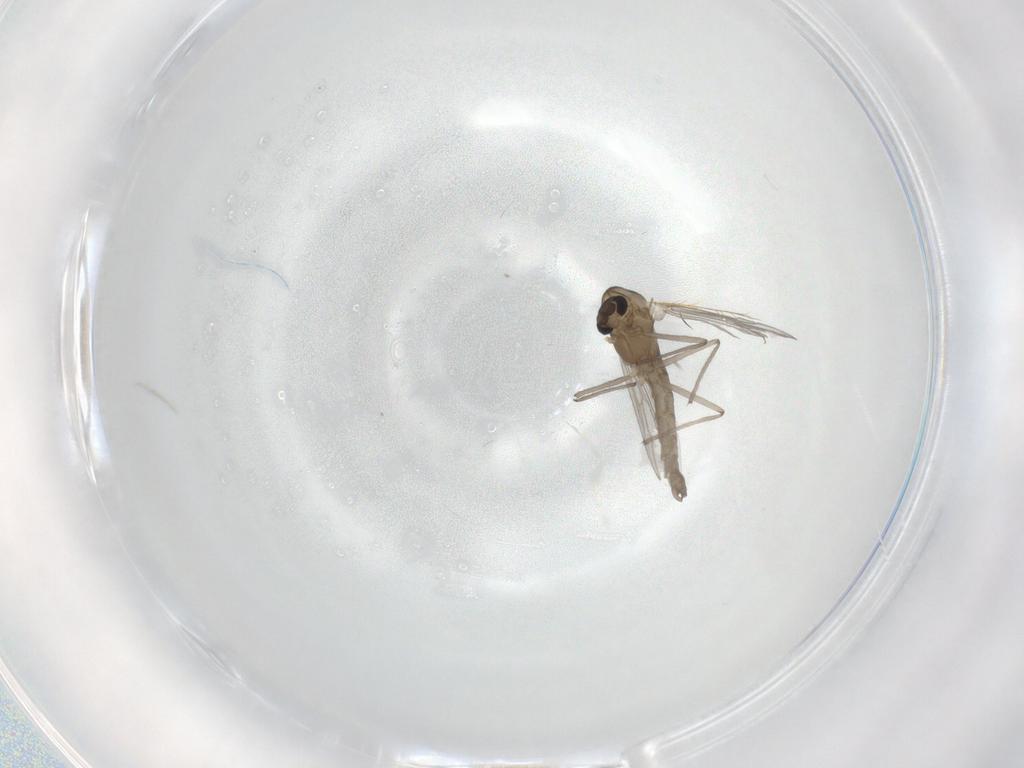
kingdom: Animalia
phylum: Arthropoda
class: Insecta
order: Diptera
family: Chironomidae
